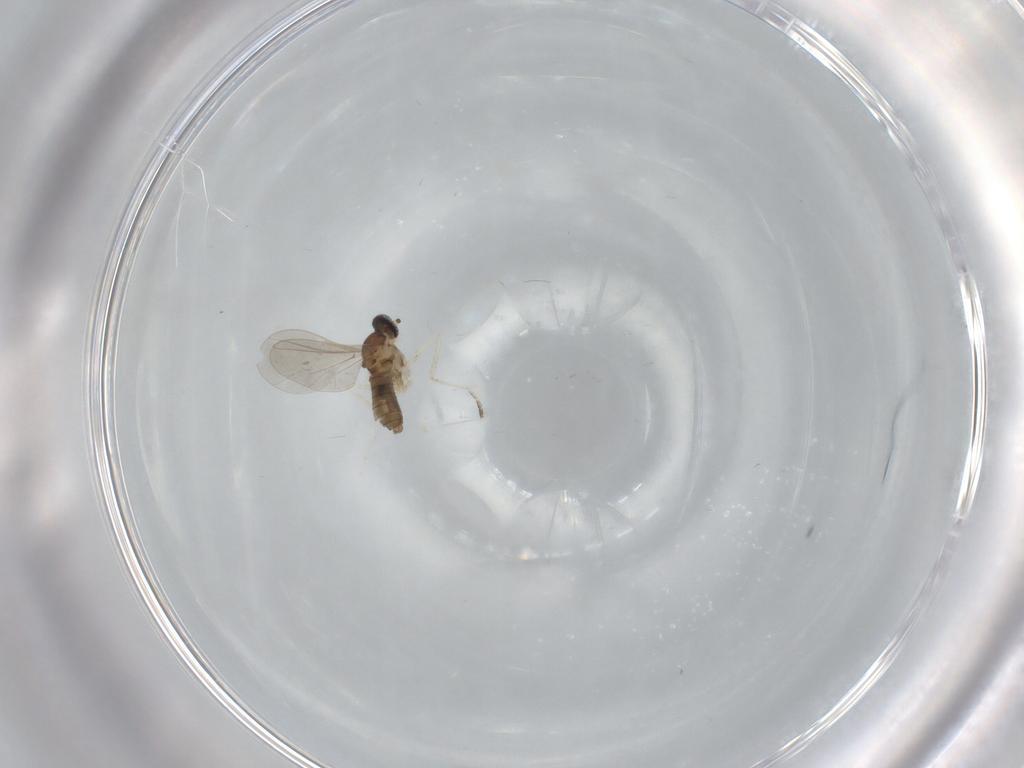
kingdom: Animalia
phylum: Arthropoda
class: Insecta
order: Diptera
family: Cecidomyiidae
